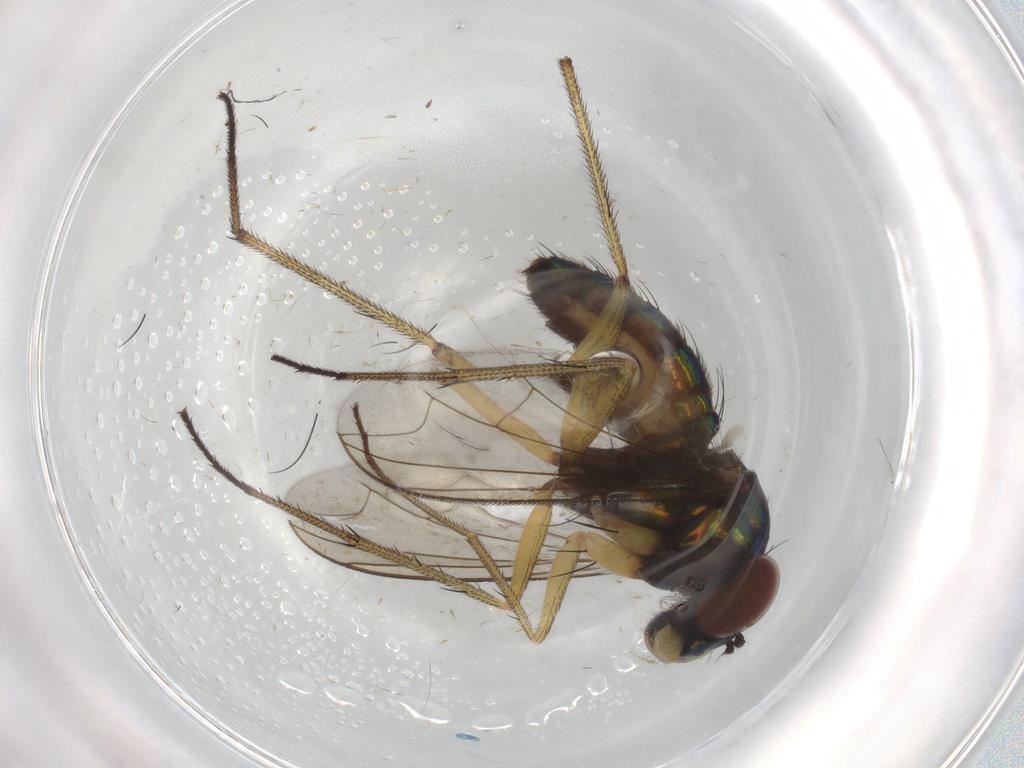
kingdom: Animalia
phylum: Arthropoda
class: Insecta
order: Diptera
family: Dolichopodidae
